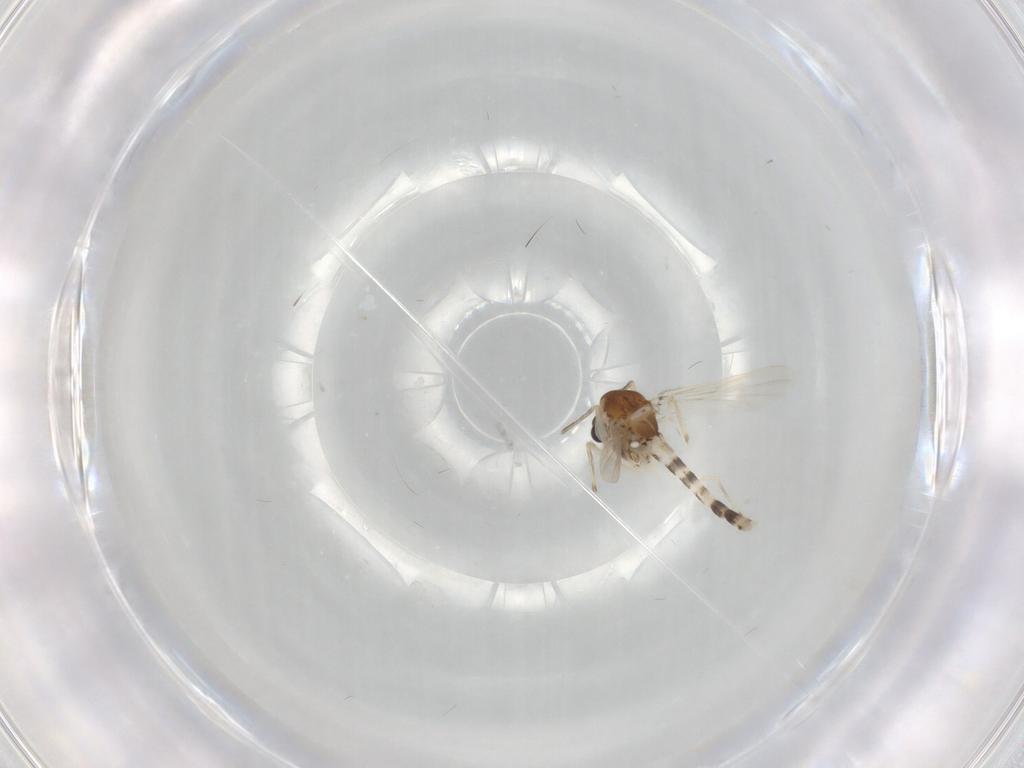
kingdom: Animalia
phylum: Arthropoda
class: Insecta
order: Diptera
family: Chironomidae
